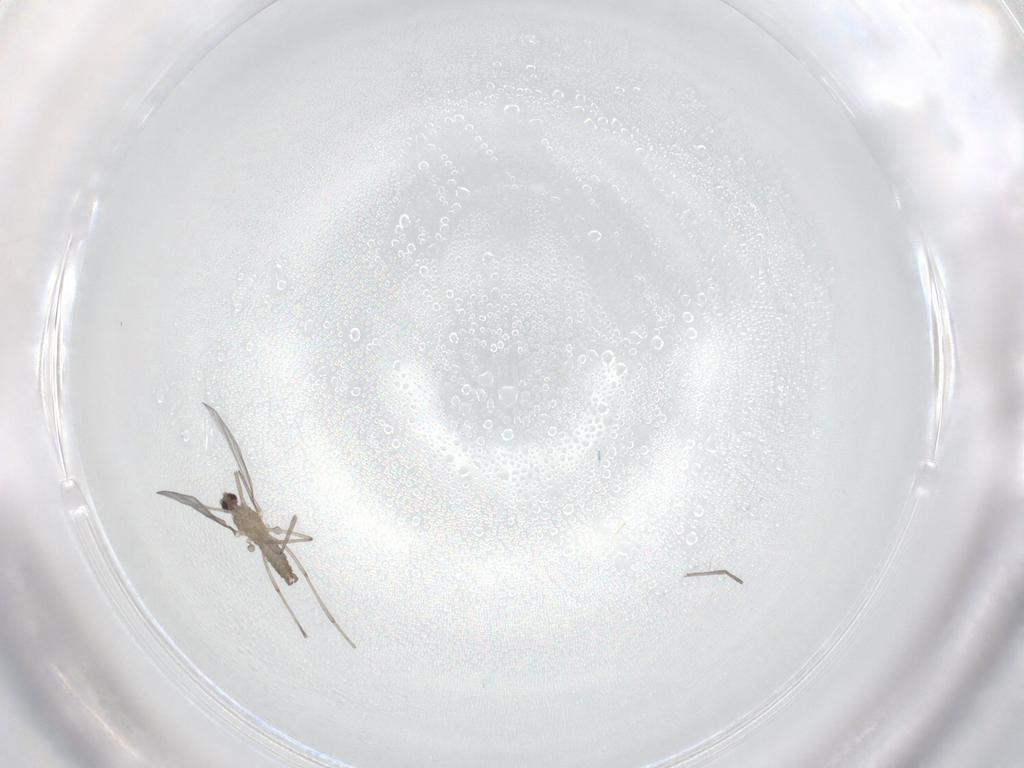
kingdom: Animalia
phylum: Arthropoda
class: Insecta
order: Diptera
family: Cecidomyiidae
